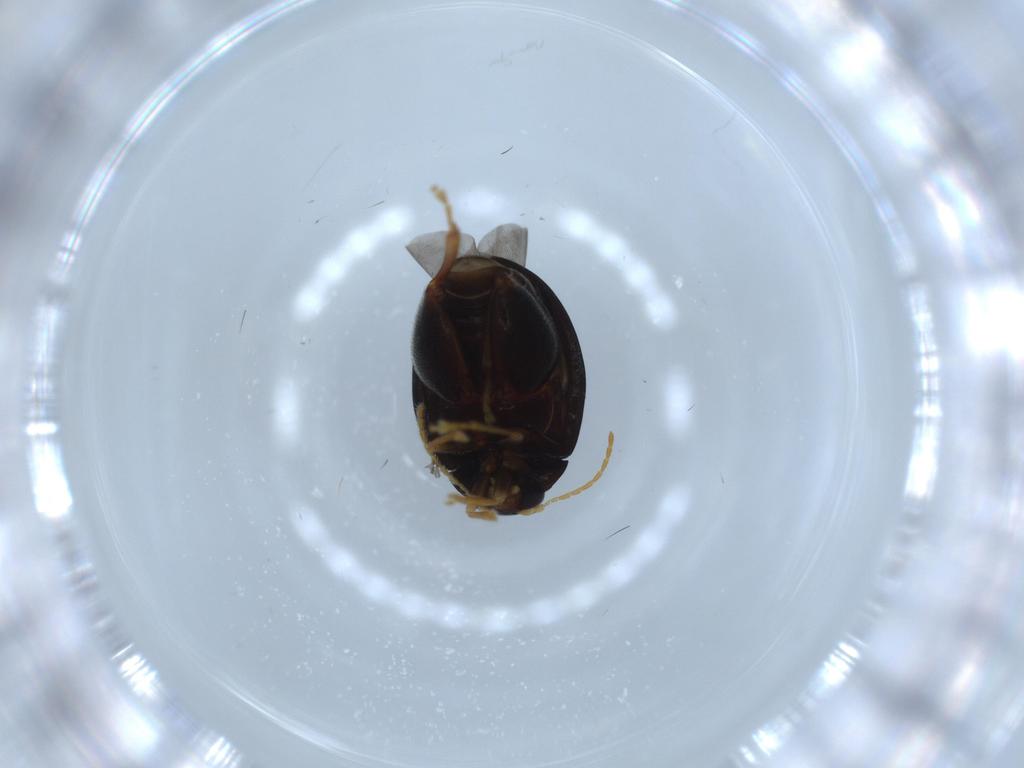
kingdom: Animalia
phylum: Arthropoda
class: Insecta
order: Coleoptera
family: Chrysomelidae
